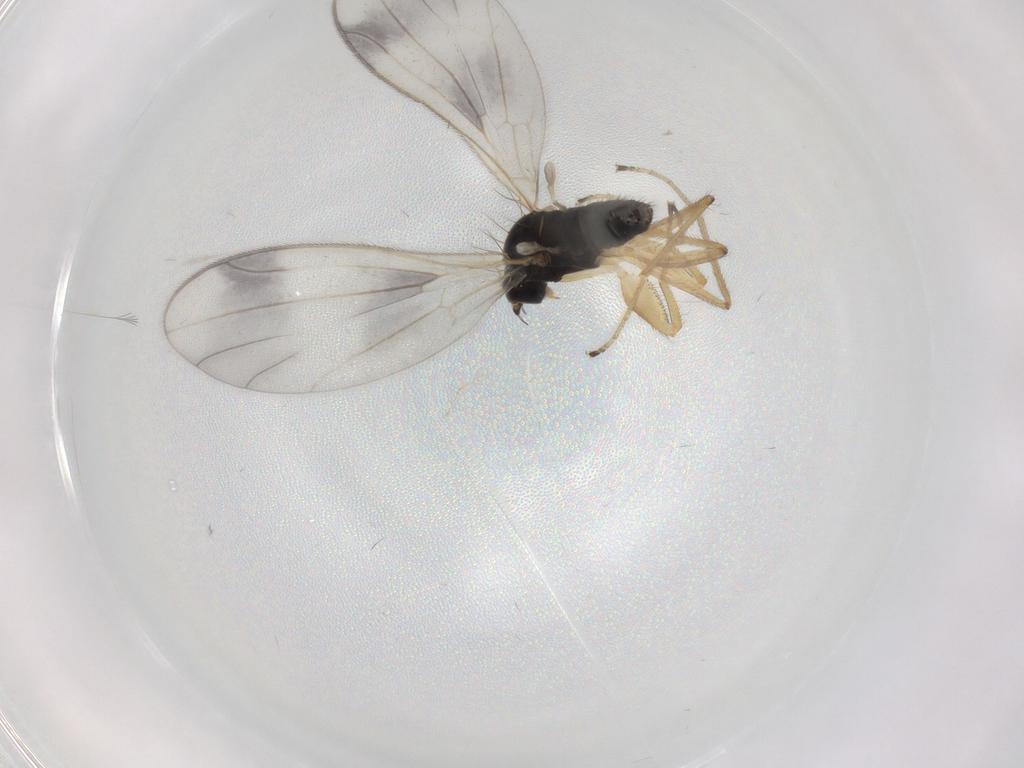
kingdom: Animalia
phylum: Arthropoda
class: Insecta
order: Diptera
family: Empididae
